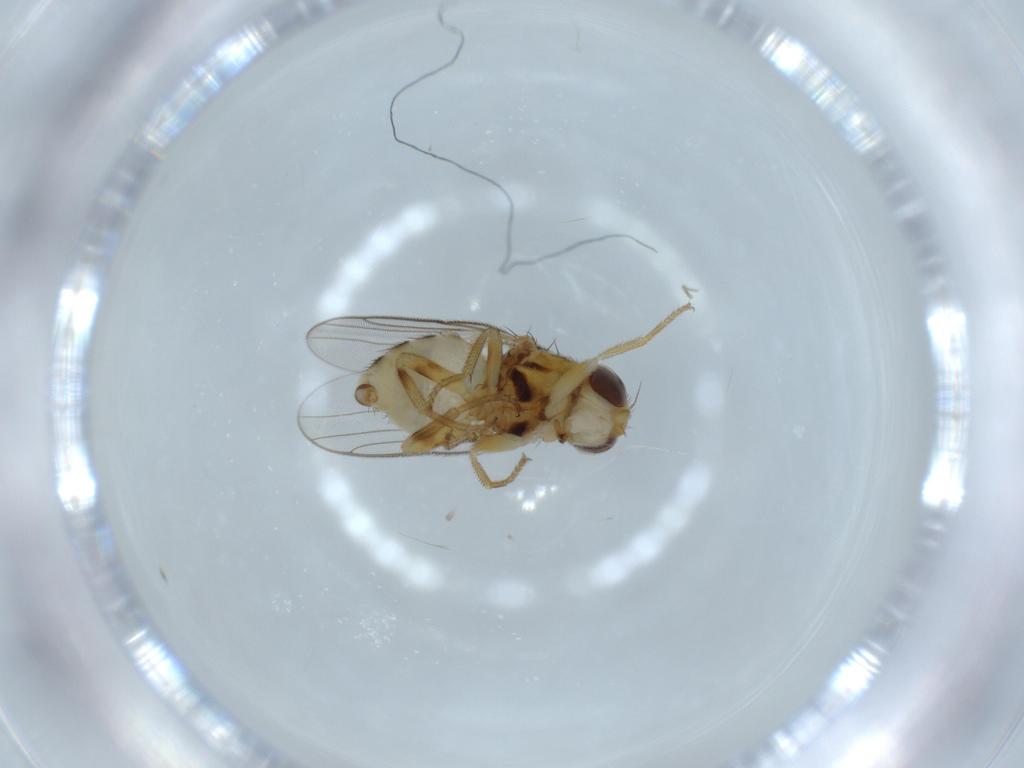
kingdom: Animalia
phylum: Arthropoda
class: Insecta
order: Diptera
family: Chloropidae
